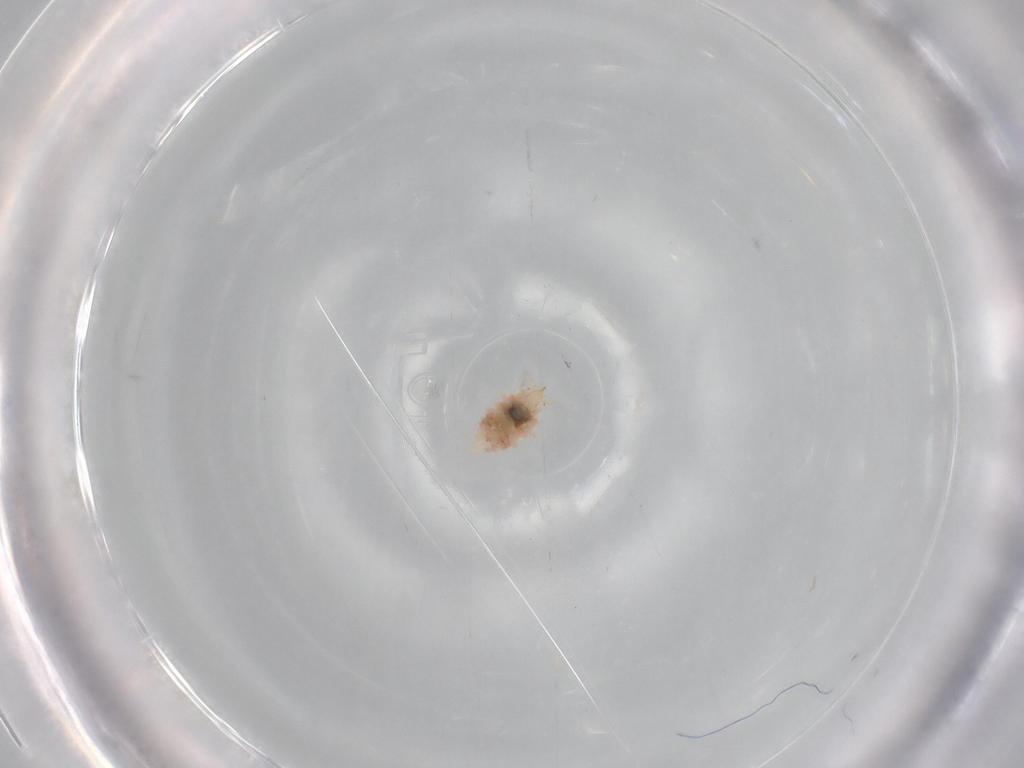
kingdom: Animalia
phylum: Arthropoda
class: Insecta
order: Neuroptera
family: Coniopterygidae
